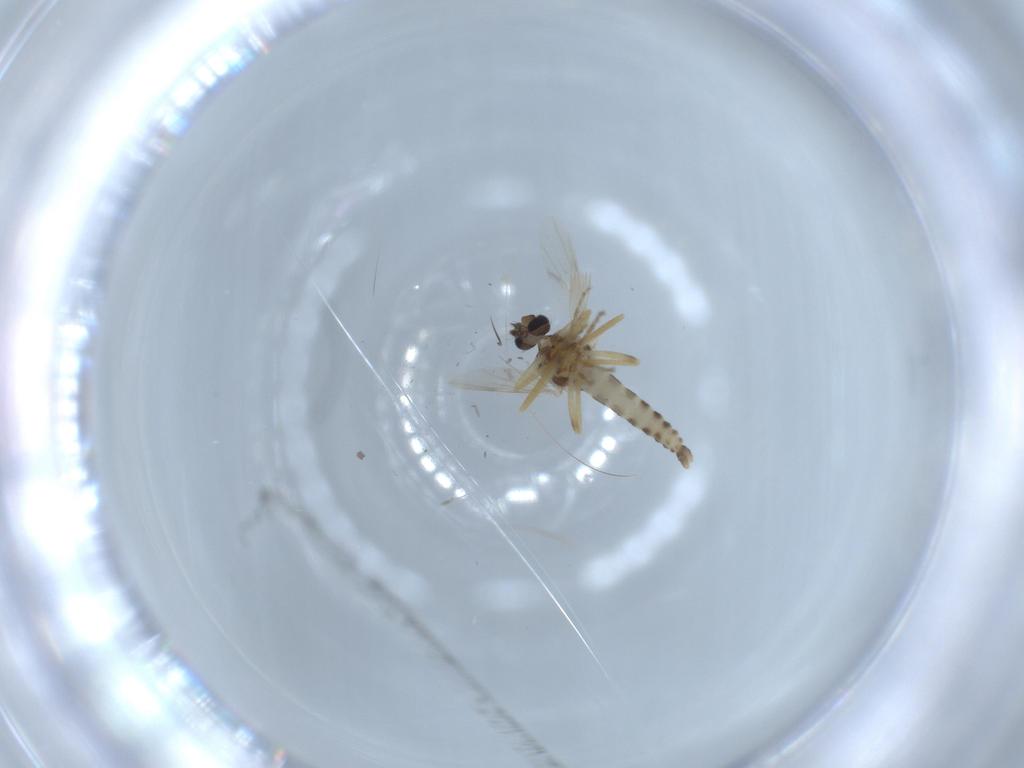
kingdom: Animalia
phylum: Arthropoda
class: Insecta
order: Diptera
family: Ceratopogonidae
